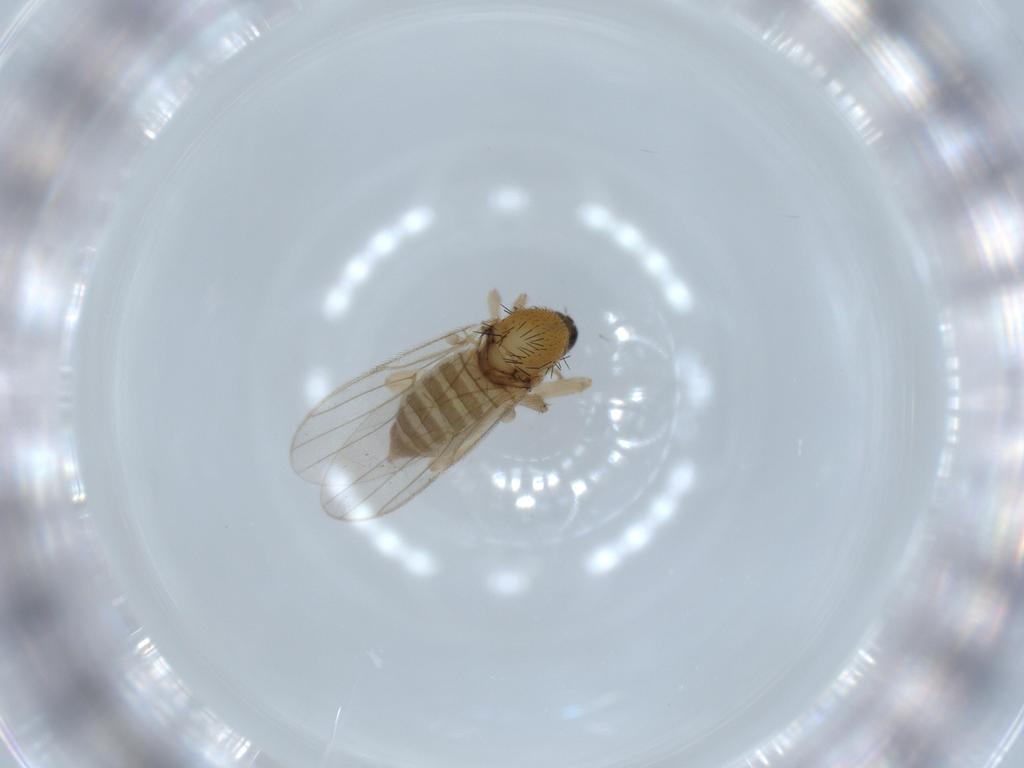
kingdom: Animalia
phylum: Arthropoda
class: Insecta
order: Diptera
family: Hybotidae
